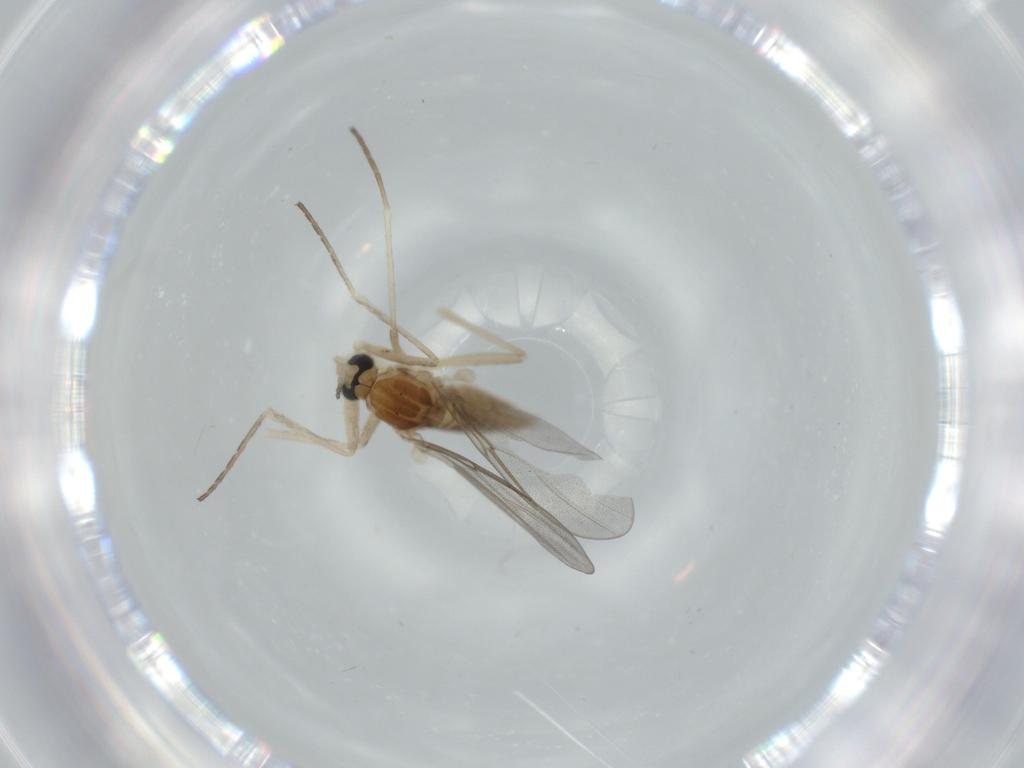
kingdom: Animalia
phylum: Arthropoda
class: Insecta
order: Diptera
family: Cecidomyiidae
